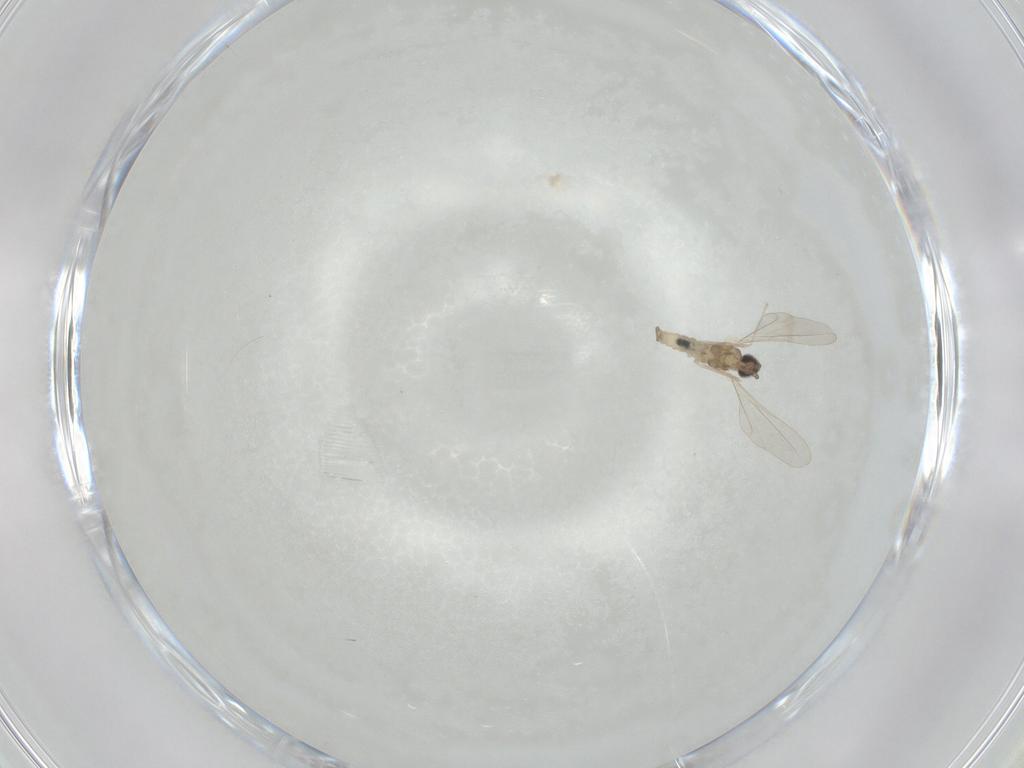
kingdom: Animalia
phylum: Arthropoda
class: Insecta
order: Diptera
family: Cecidomyiidae
